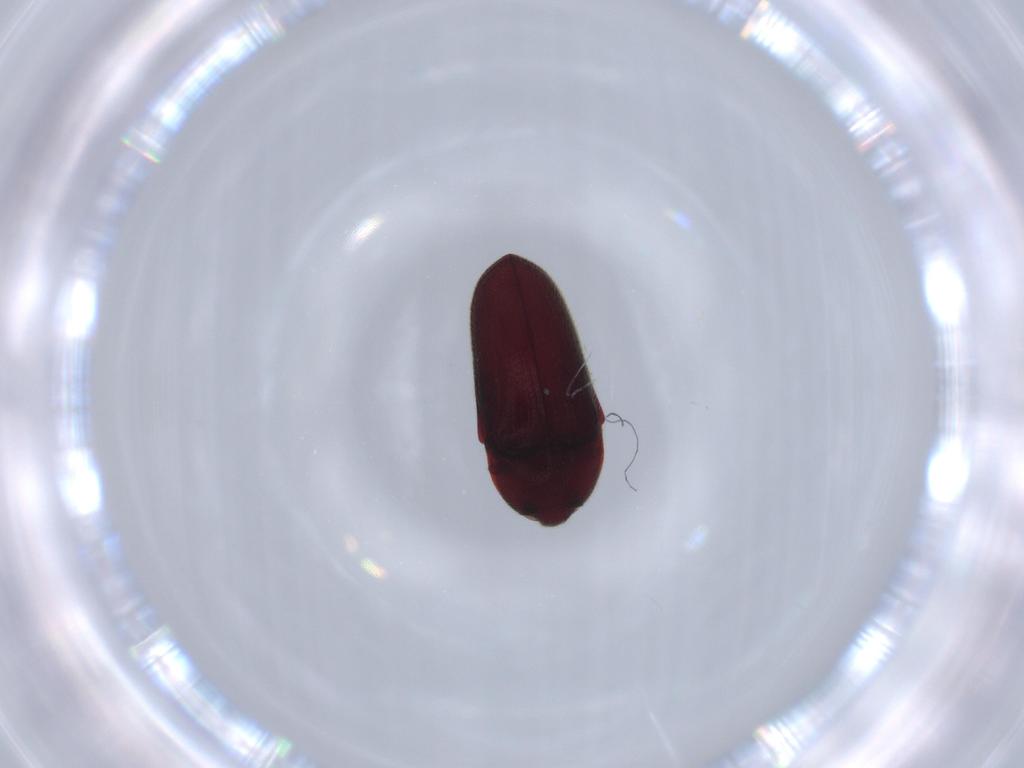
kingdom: Animalia
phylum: Arthropoda
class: Insecta
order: Coleoptera
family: Throscidae
